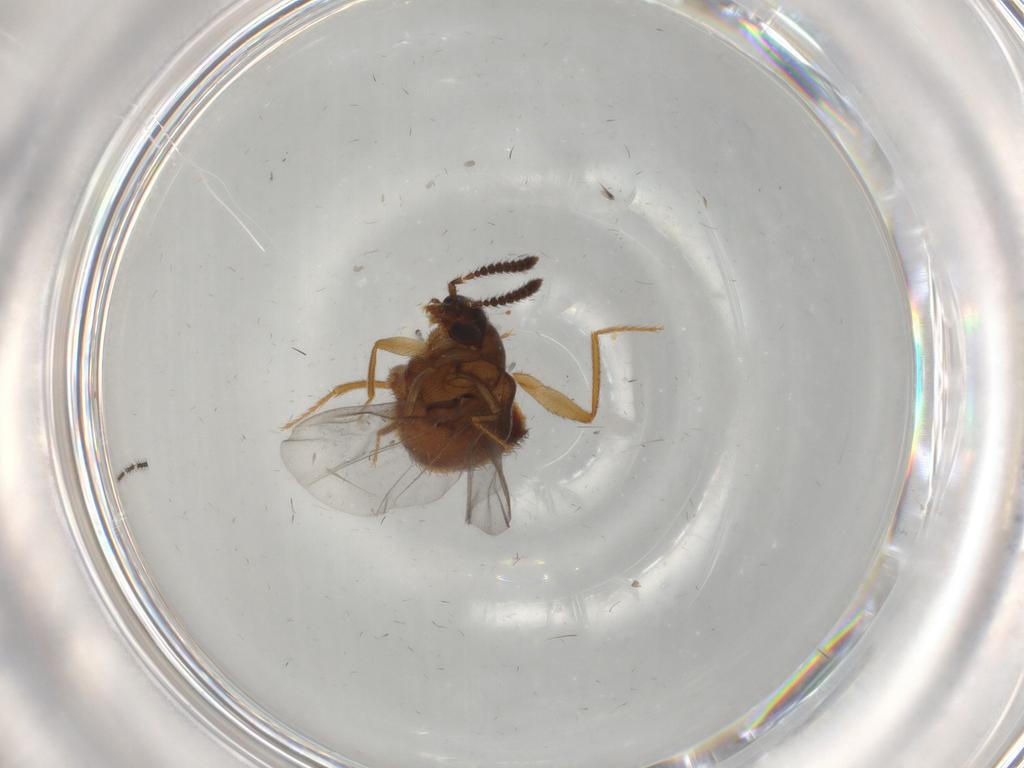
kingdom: Animalia
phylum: Arthropoda
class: Insecta
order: Coleoptera
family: Staphylinidae
